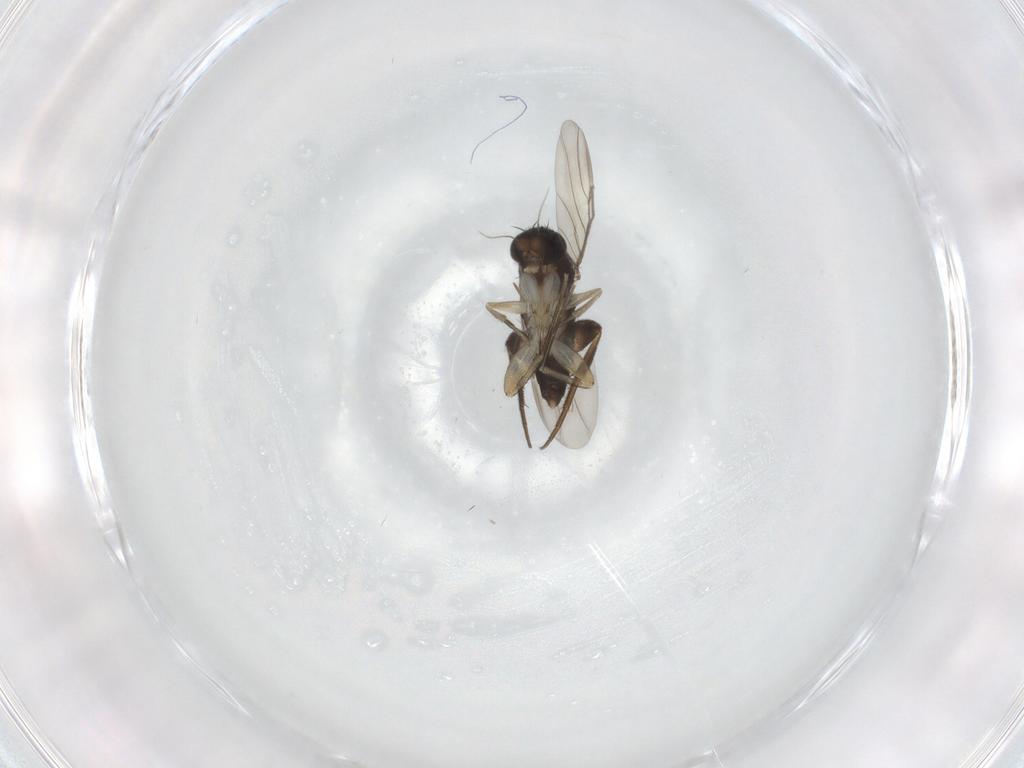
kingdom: Animalia
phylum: Arthropoda
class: Insecta
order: Diptera
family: Phoridae
